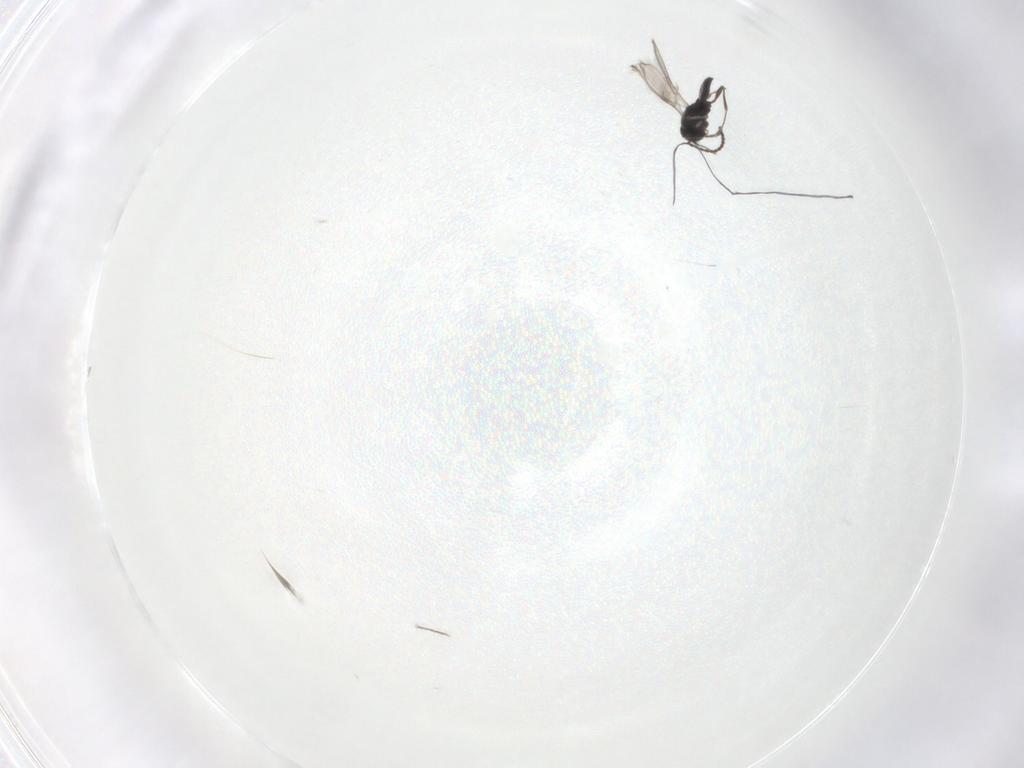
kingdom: Animalia
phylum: Arthropoda
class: Insecta
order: Hymenoptera
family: Scelionidae
